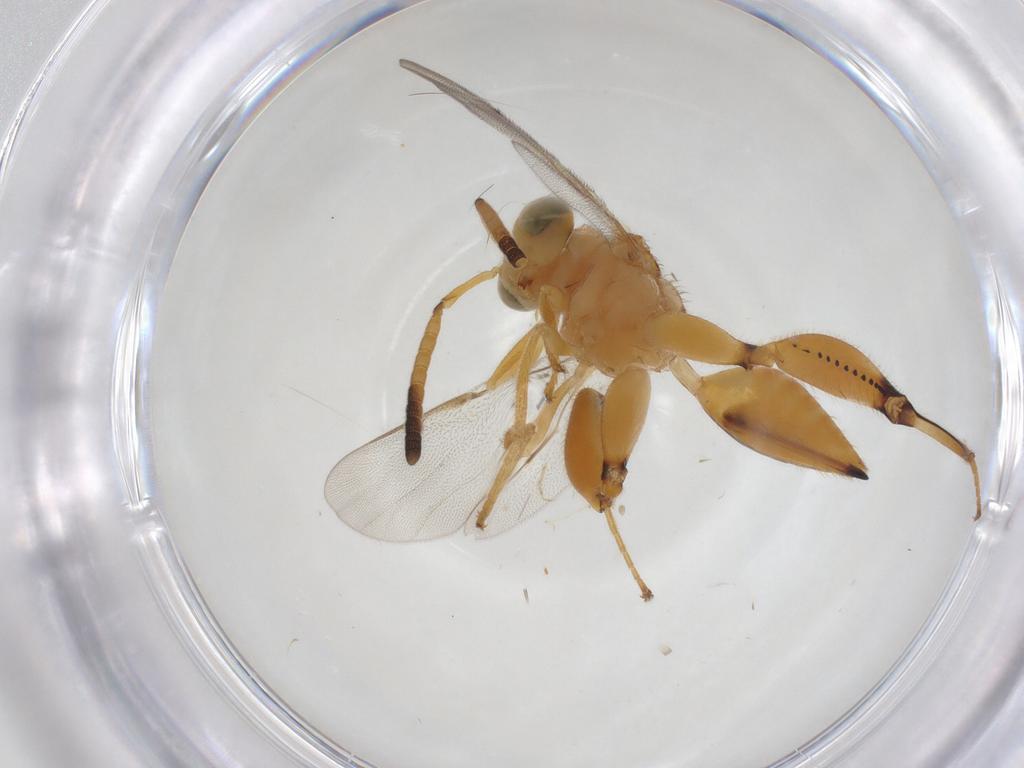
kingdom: Animalia
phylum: Arthropoda
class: Insecta
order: Hymenoptera
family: Chalcididae
